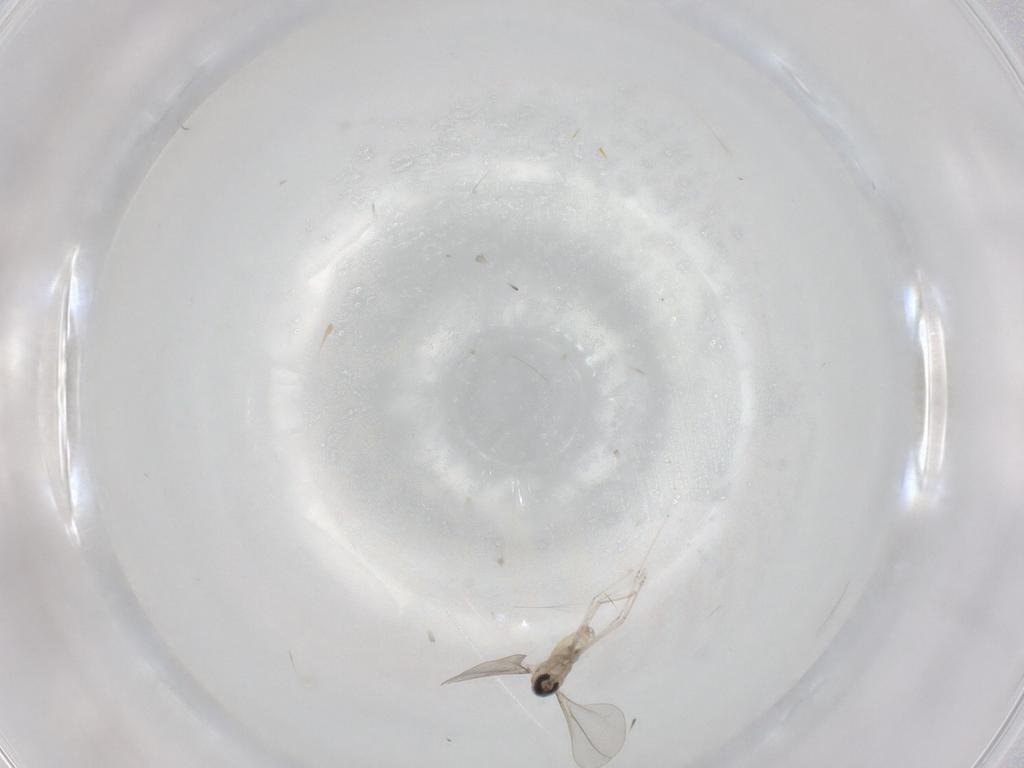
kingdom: Animalia
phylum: Arthropoda
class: Insecta
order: Diptera
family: Cecidomyiidae
